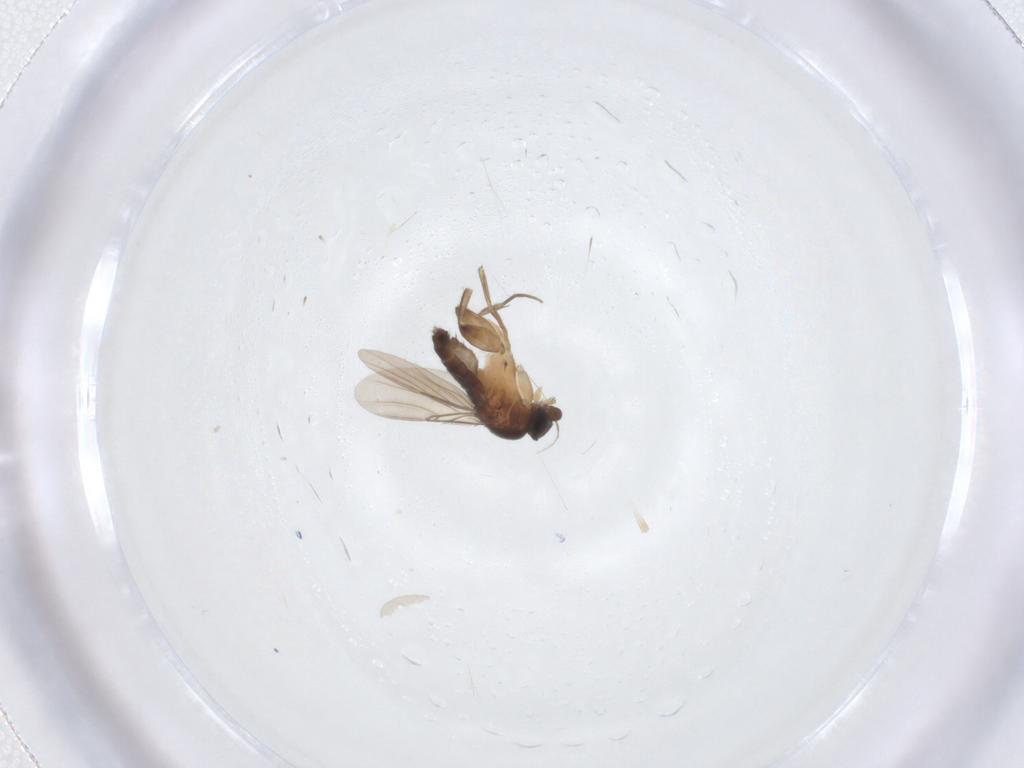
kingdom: Animalia
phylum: Arthropoda
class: Insecta
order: Diptera
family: Phoridae
